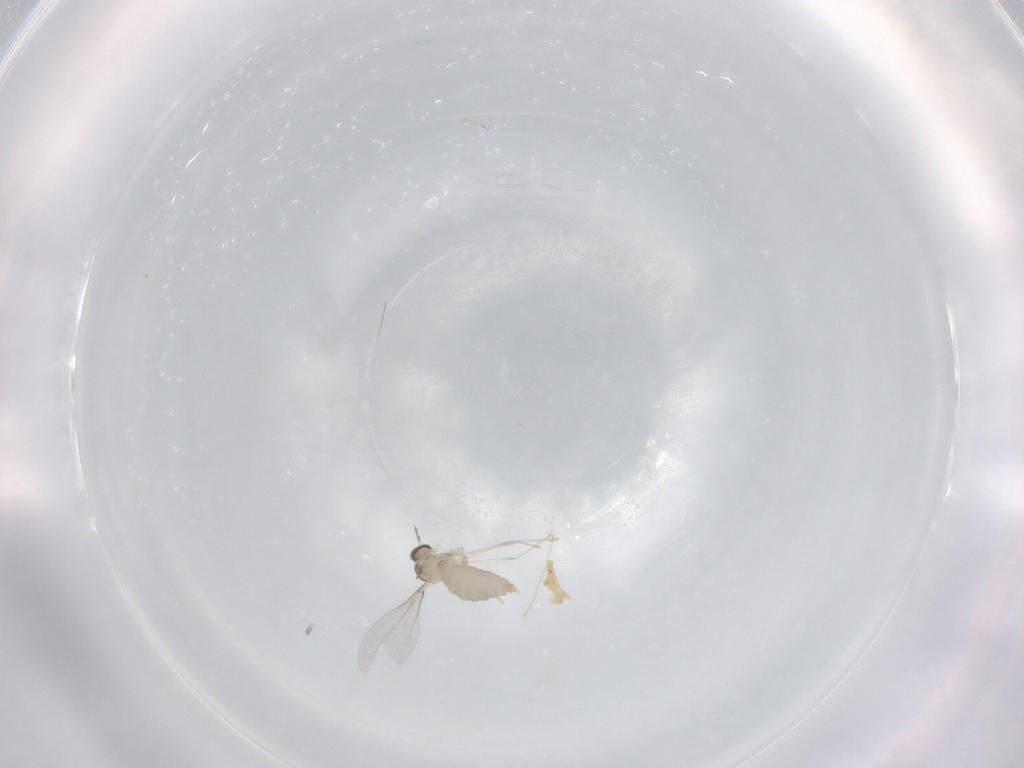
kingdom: Animalia
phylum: Arthropoda
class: Insecta
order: Diptera
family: Cecidomyiidae
